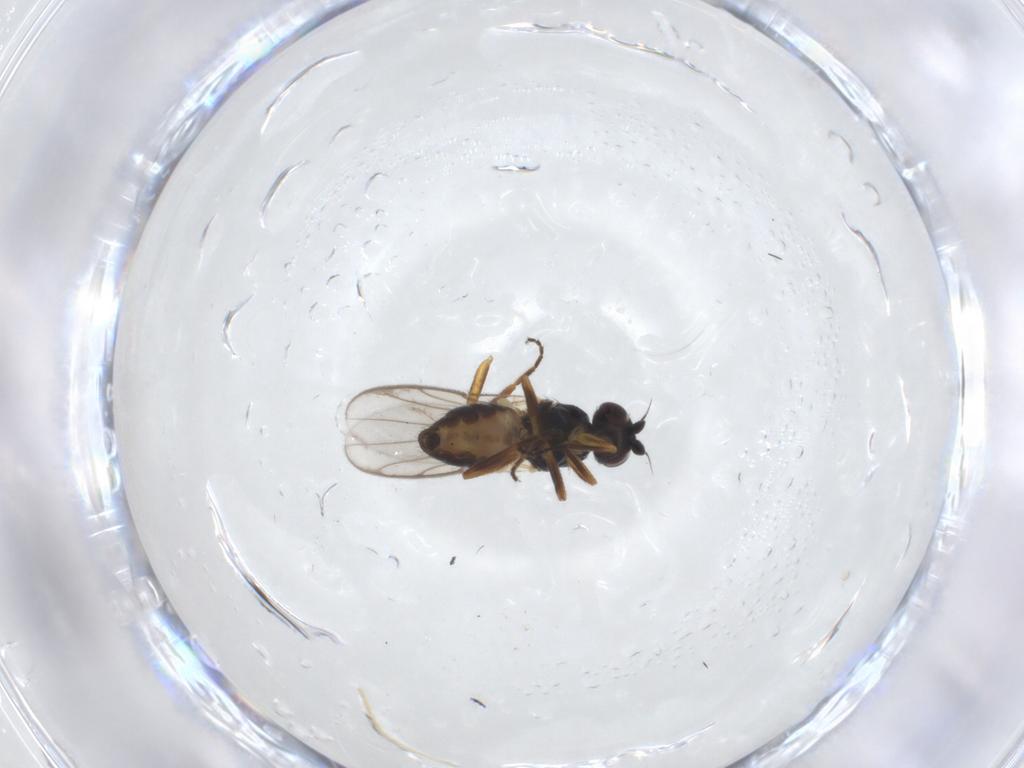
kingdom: Animalia
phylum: Arthropoda
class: Insecta
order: Diptera
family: Chloropidae
